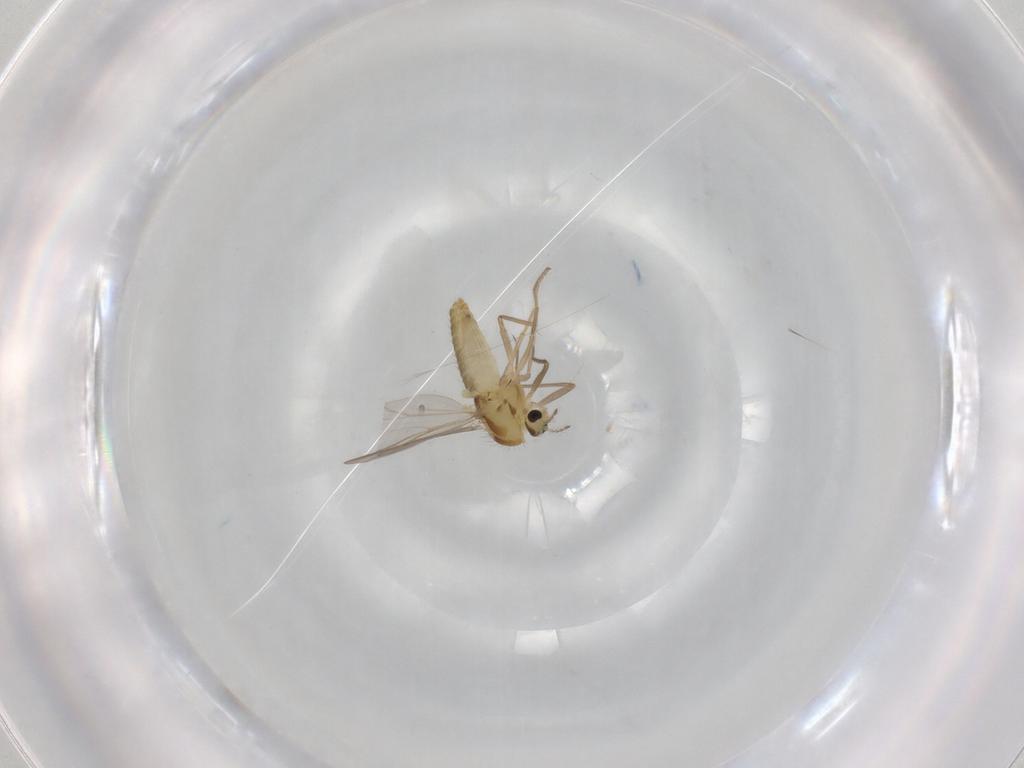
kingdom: Animalia
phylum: Arthropoda
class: Insecta
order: Diptera
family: Chironomidae
